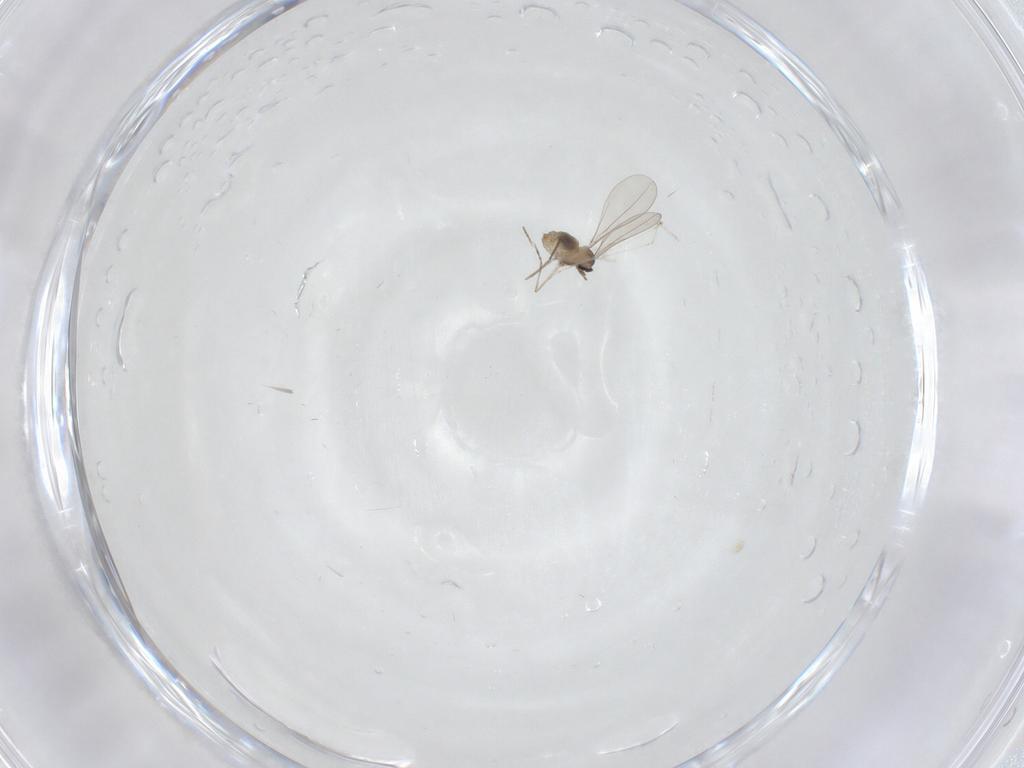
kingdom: Animalia
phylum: Arthropoda
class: Insecta
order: Diptera
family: Cecidomyiidae
